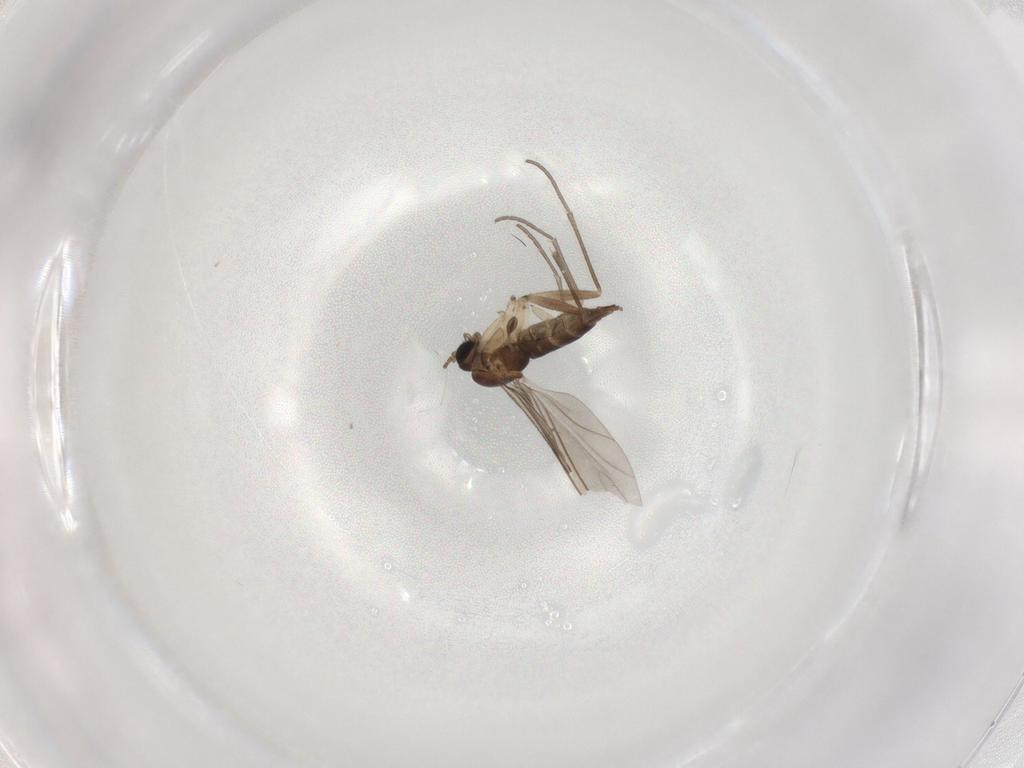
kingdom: Animalia
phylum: Arthropoda
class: Insecta
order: Diptera
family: Sciaridae
